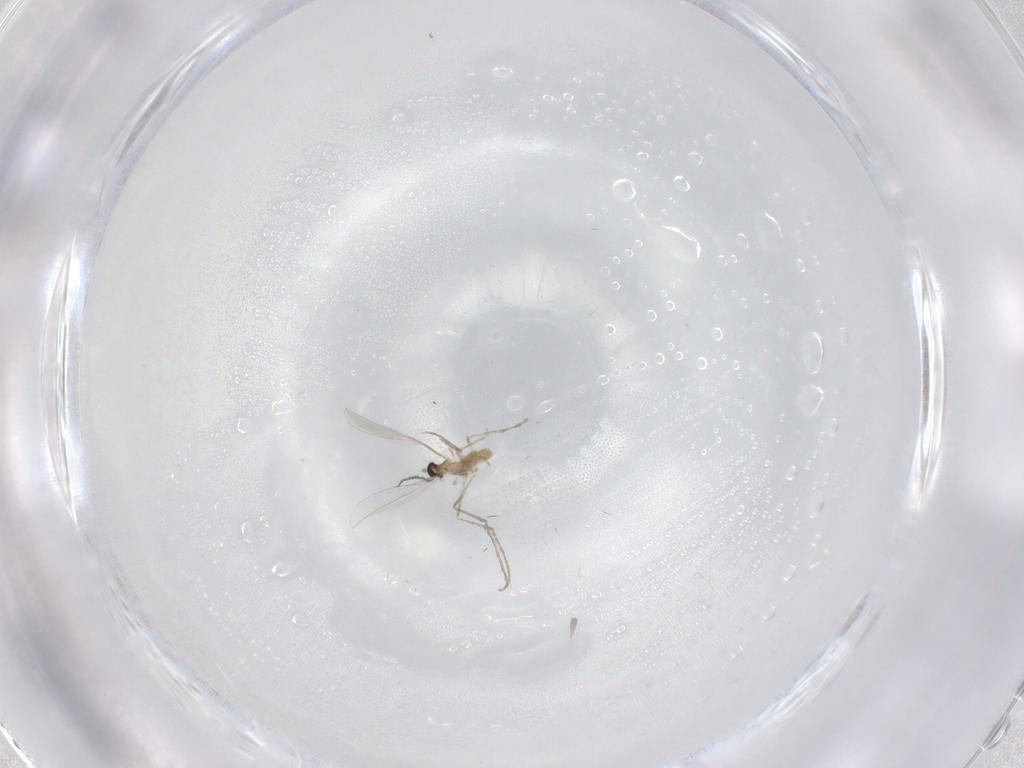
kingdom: Animalia
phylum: Arthropoda
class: Insecta
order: Diptera
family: Cecidomyiidae
